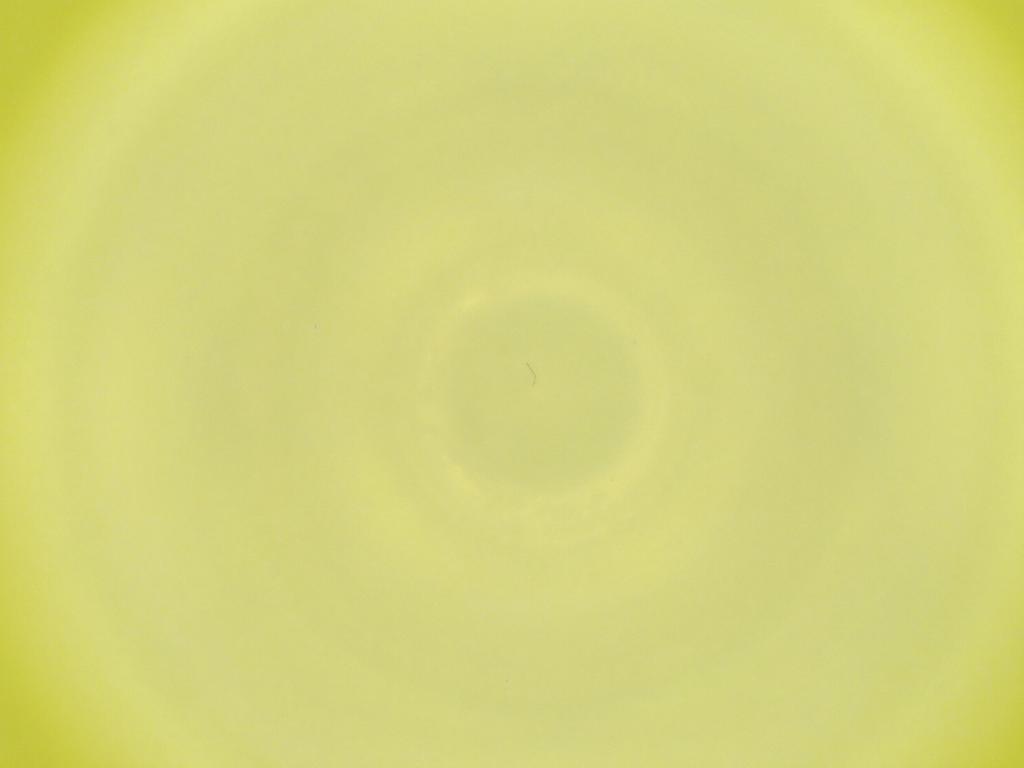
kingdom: Animalia
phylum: Arthropoda
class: Insecta
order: Diptera
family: Cecidomyiidae
